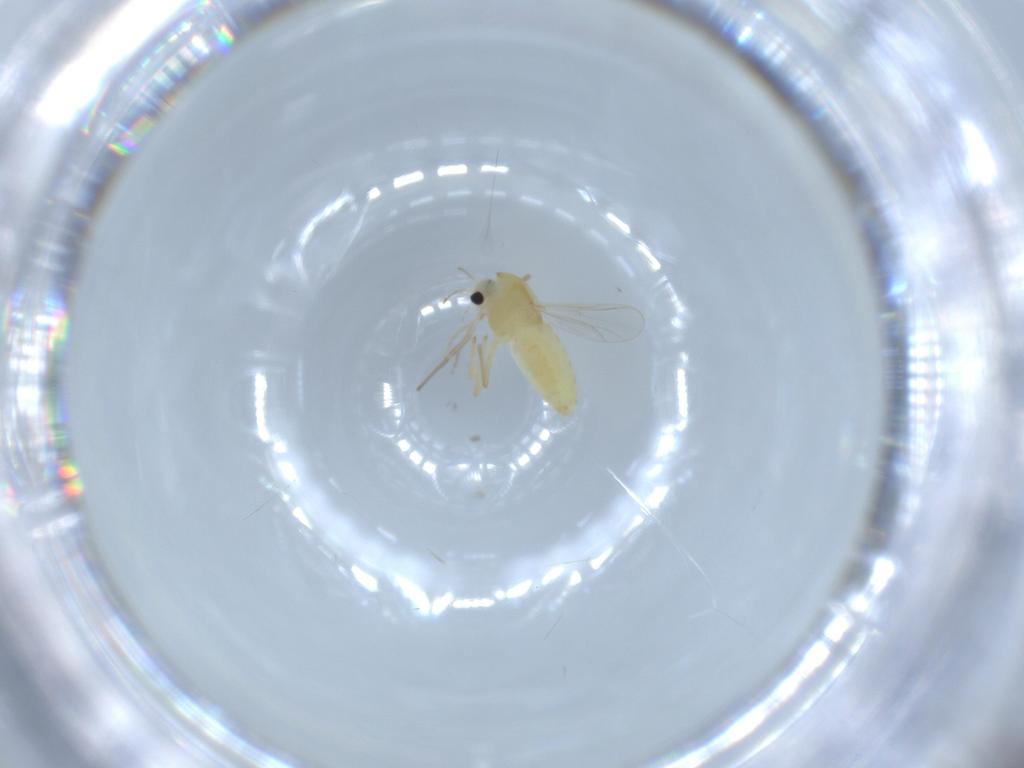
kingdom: Animalia
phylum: Arthropoda
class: Insecta
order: Diptera
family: Chironomidae
